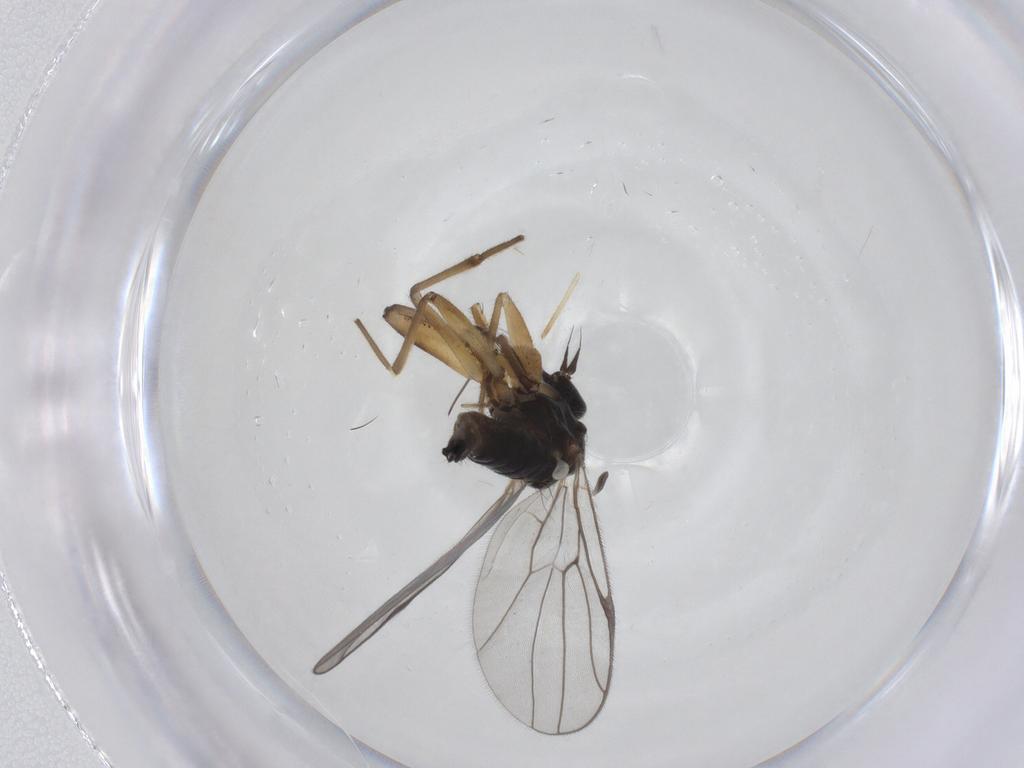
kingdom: Animalia
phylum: Arthropoda
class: Insecta
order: Diptera
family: Hybotidae
